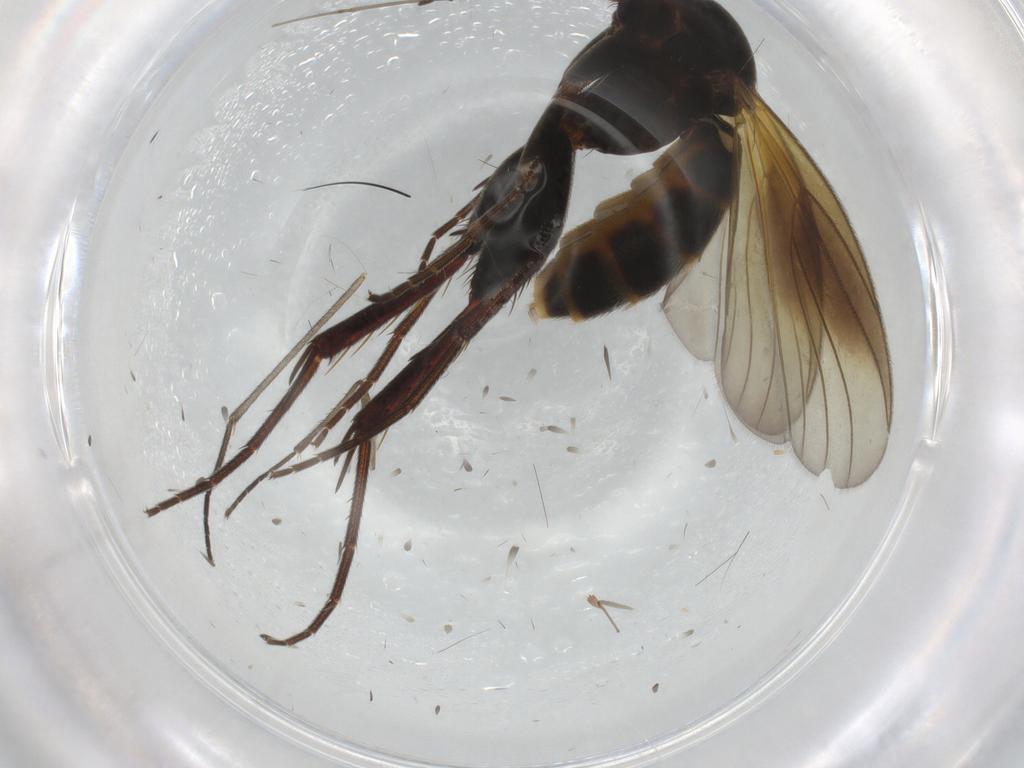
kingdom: Animalia
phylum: Arthropoda
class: Insecta
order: Diptera
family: Cecidomyiidae
